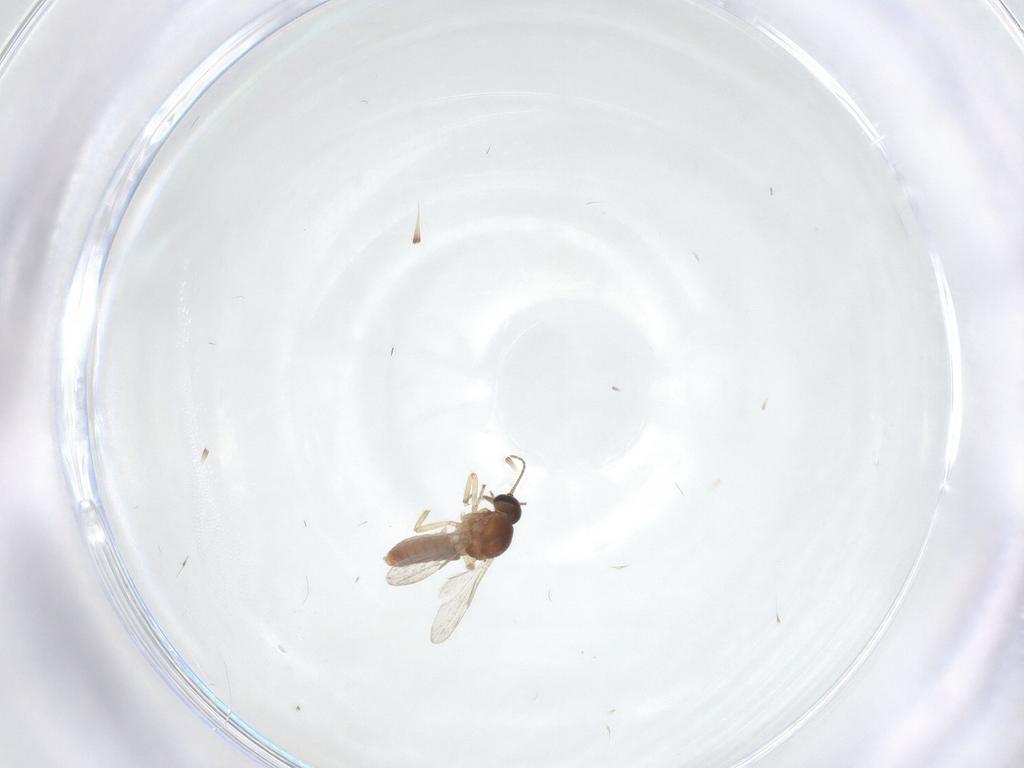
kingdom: Animalia
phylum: Arthropoda
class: Insecta
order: Diptera
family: Ceratopogonidae
